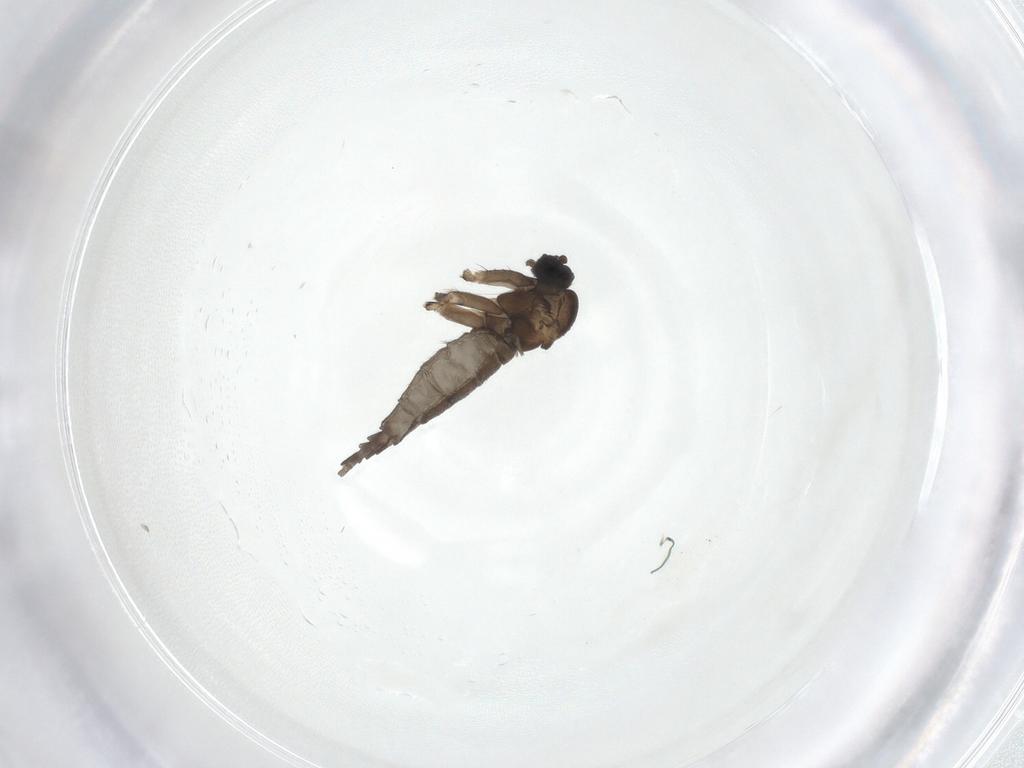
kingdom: Animalia
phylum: Arthropoda
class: Insecta
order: Diptera
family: Sciaridae
